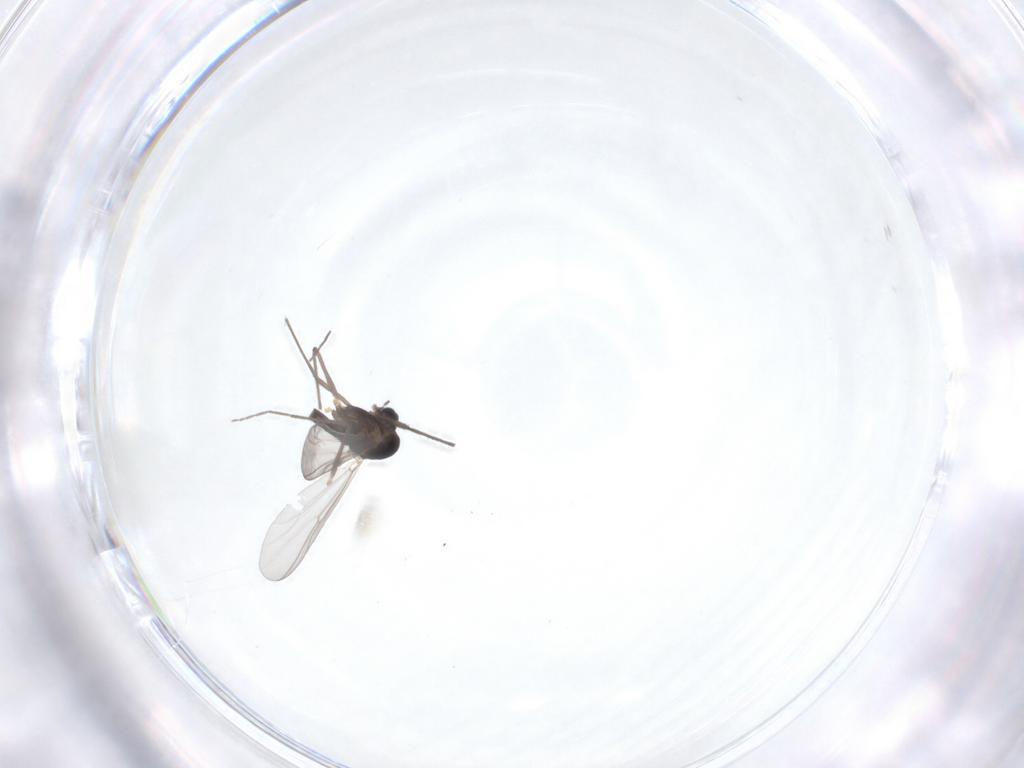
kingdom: Animalia
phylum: Arthropoda
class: Insecta
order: Diptera
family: Chironomidae
